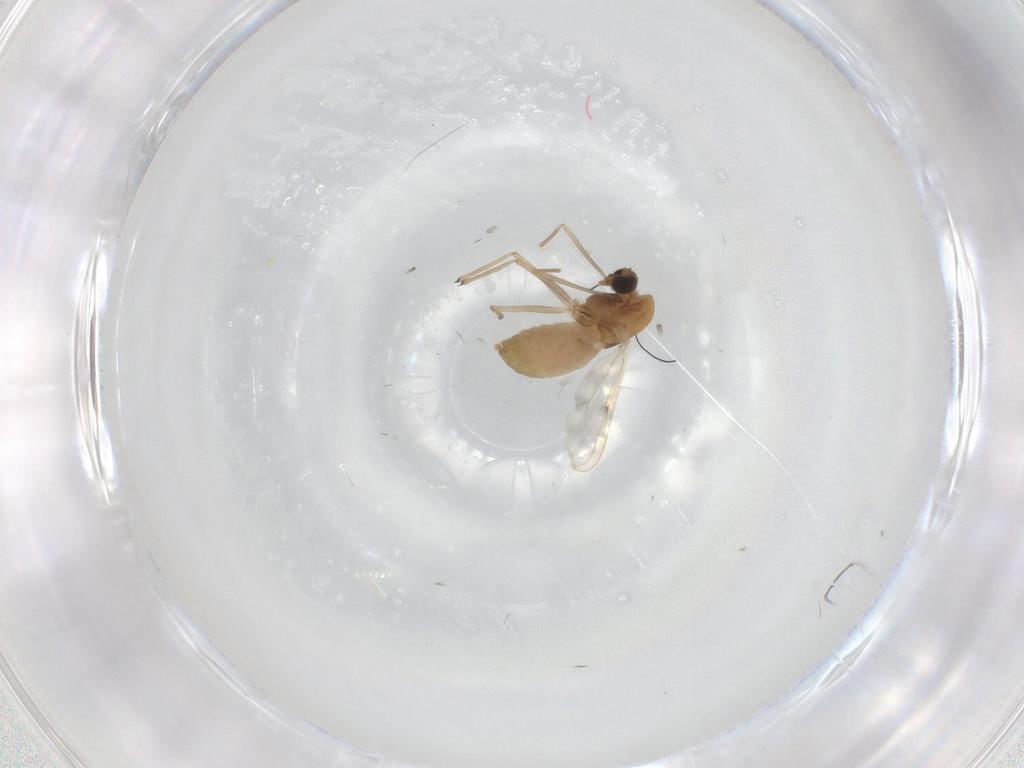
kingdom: Animalia
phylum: Arthropoda
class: Insecta
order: Diptera
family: Chironomidae
